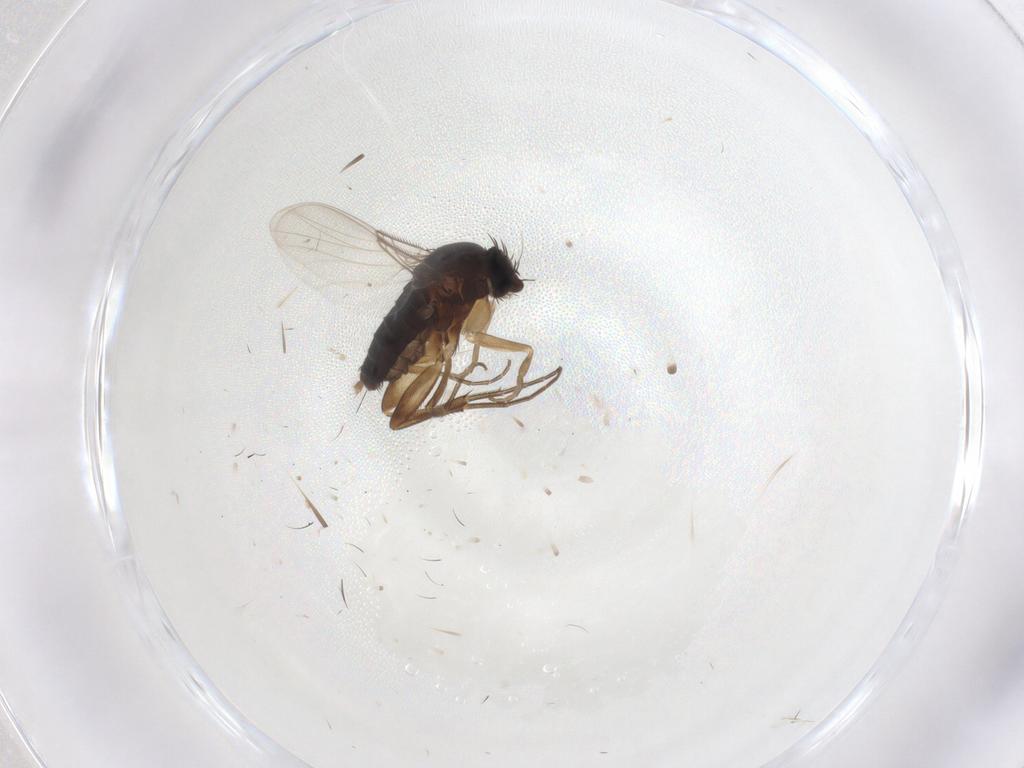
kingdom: Animalia
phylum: Arthropoda
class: Insecta
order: Diptera
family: Phoridae
